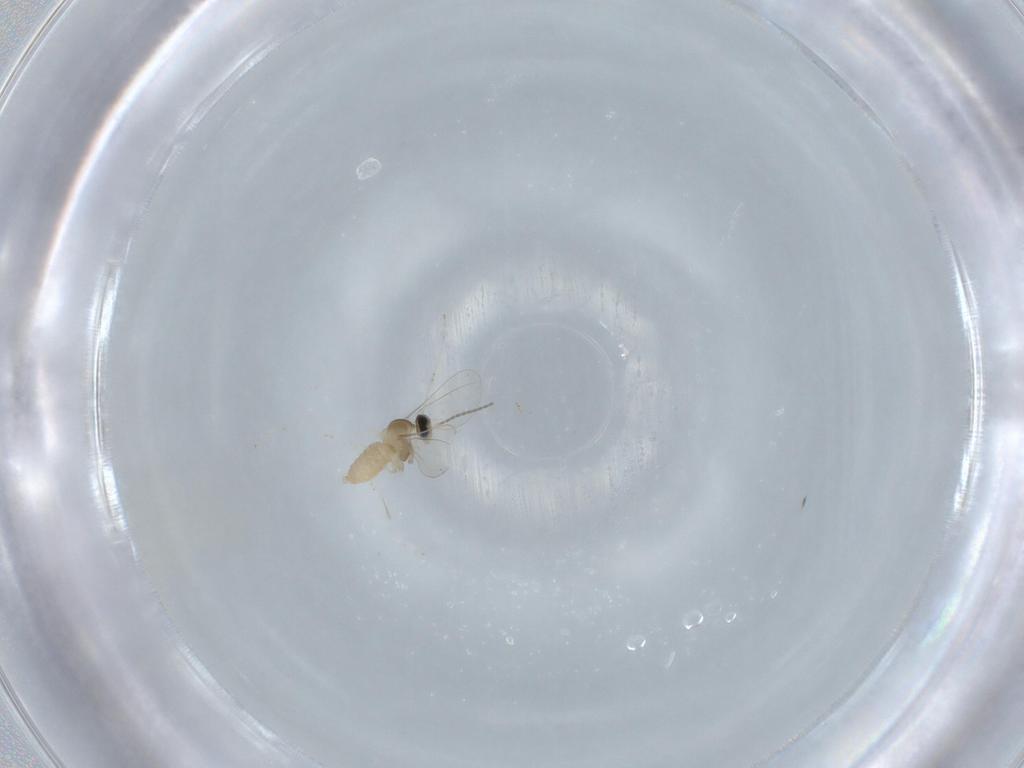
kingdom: Animalia
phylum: Arthropoda
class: Insecta
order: Diptera
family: Cecidomyiidae
